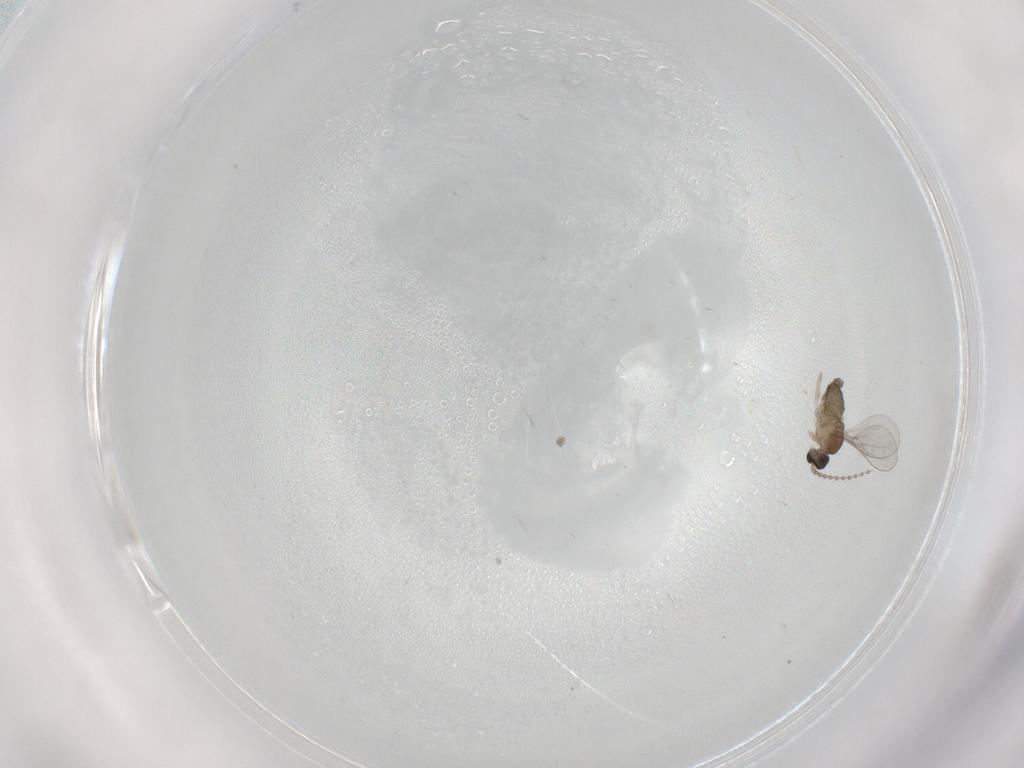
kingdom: Animalia
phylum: Arthropoda
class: Insecta
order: Diptera
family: Cecidomyiidae
